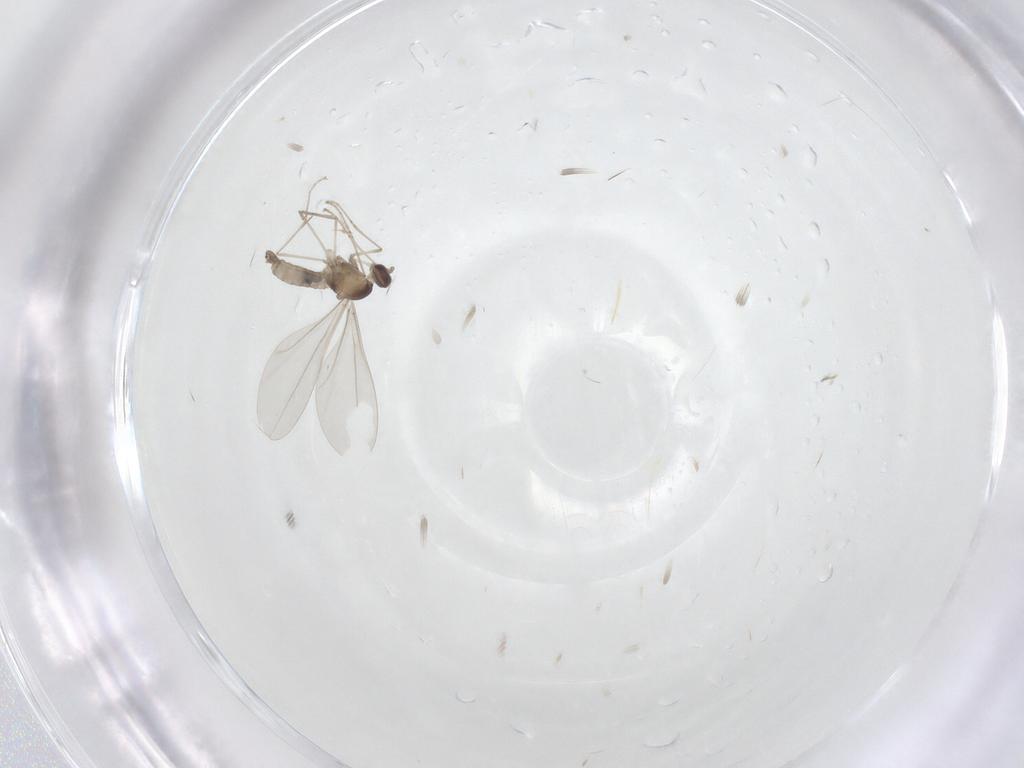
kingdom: Animalia
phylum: Arthropoda
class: Insecta
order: Diptera
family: Cecidomyiidae
